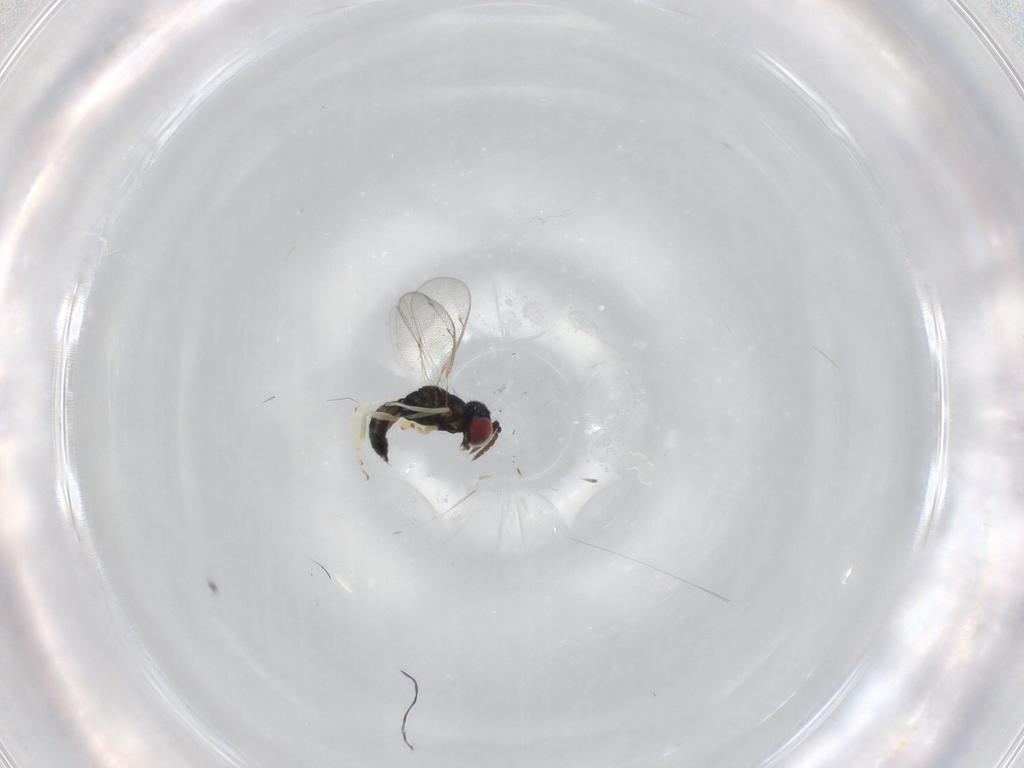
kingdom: Animalia
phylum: Arthropoda
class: Insecta
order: Hymenoptera
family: Eulophidae
